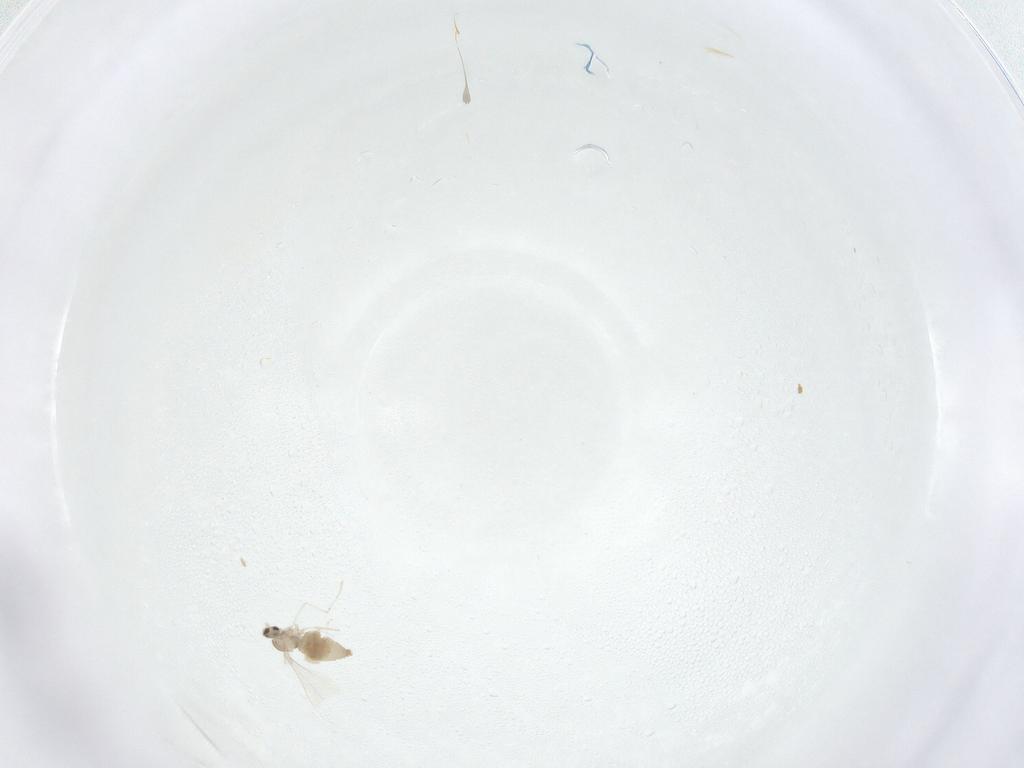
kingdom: Animalia
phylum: Arthropoda
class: Insecta
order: Diptera
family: Cecidomyiidae
